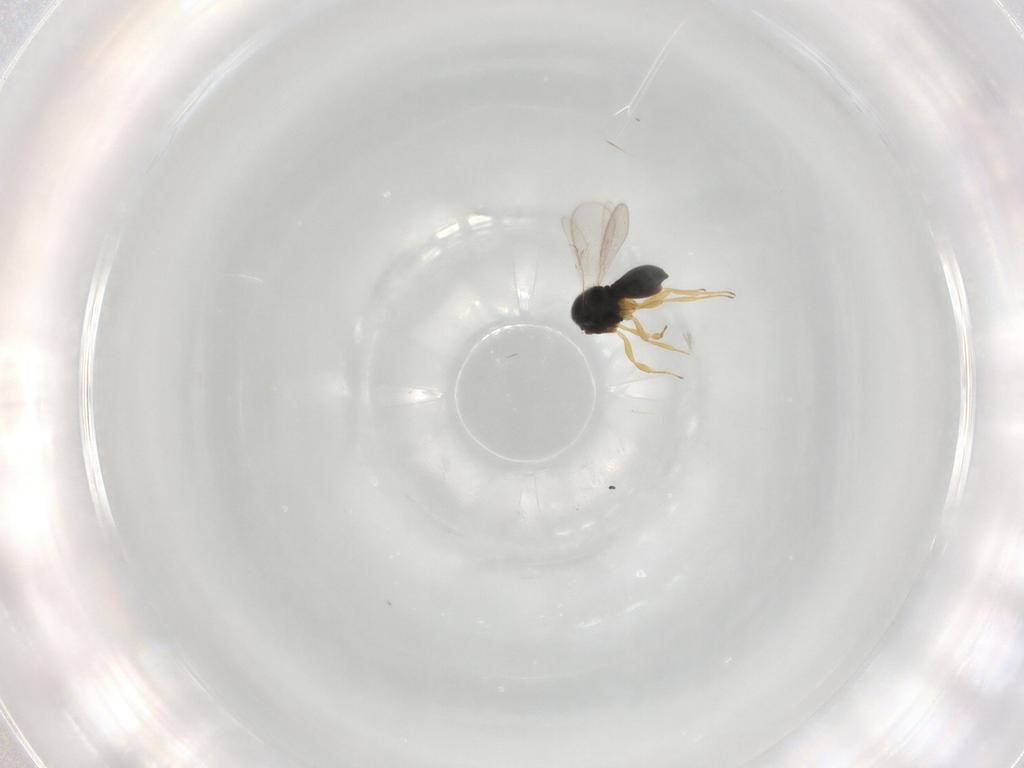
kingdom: Animalia
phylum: Arthropoda
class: Insecta
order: Hymenoptera
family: Scelionidae
